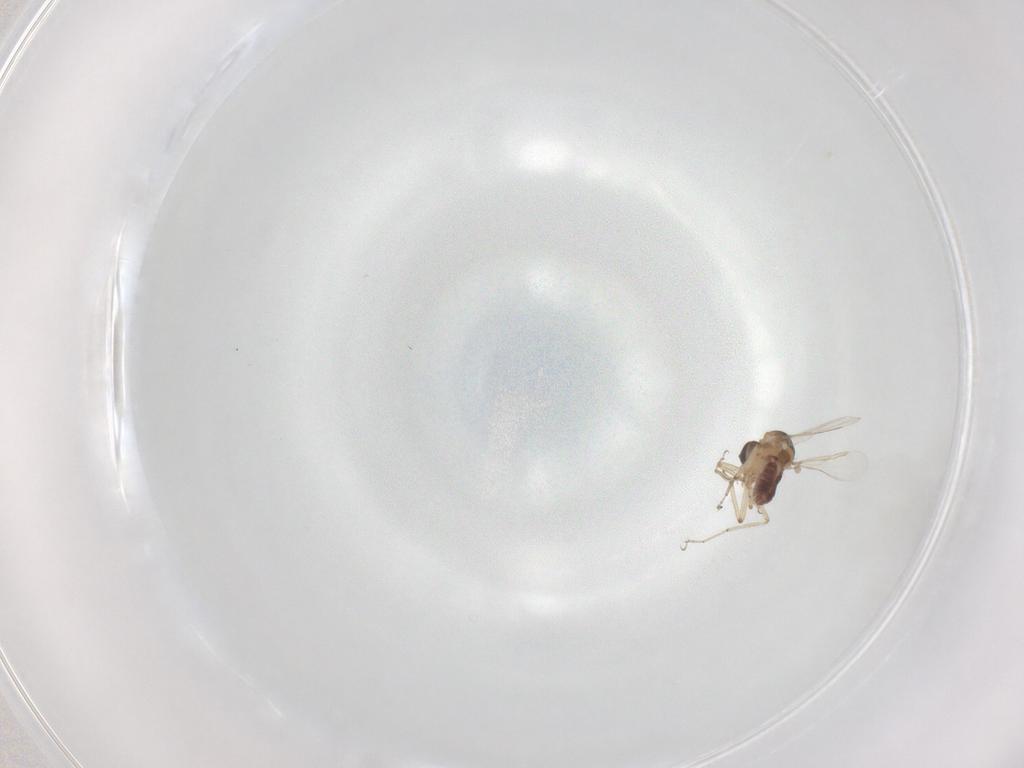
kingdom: Animalia
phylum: Arthropoda
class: Insecta
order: Diptera
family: Ceratopogonidae
